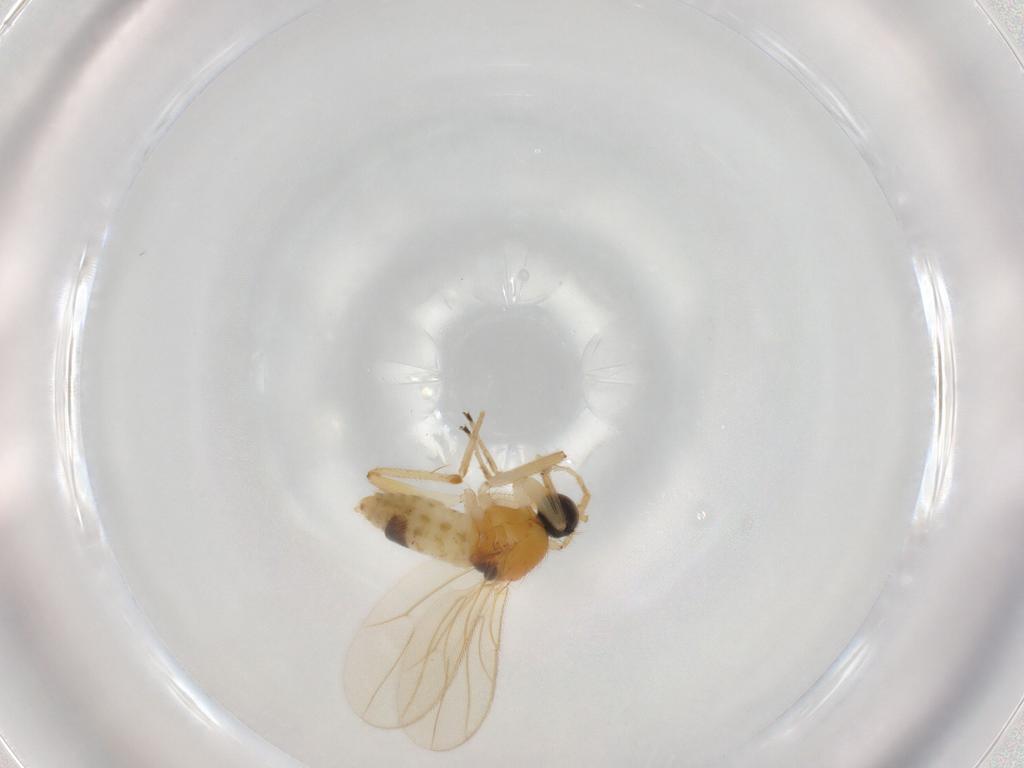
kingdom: Animalia
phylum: Arthropoda
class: Insecta
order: Diptera
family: Hybotidae
